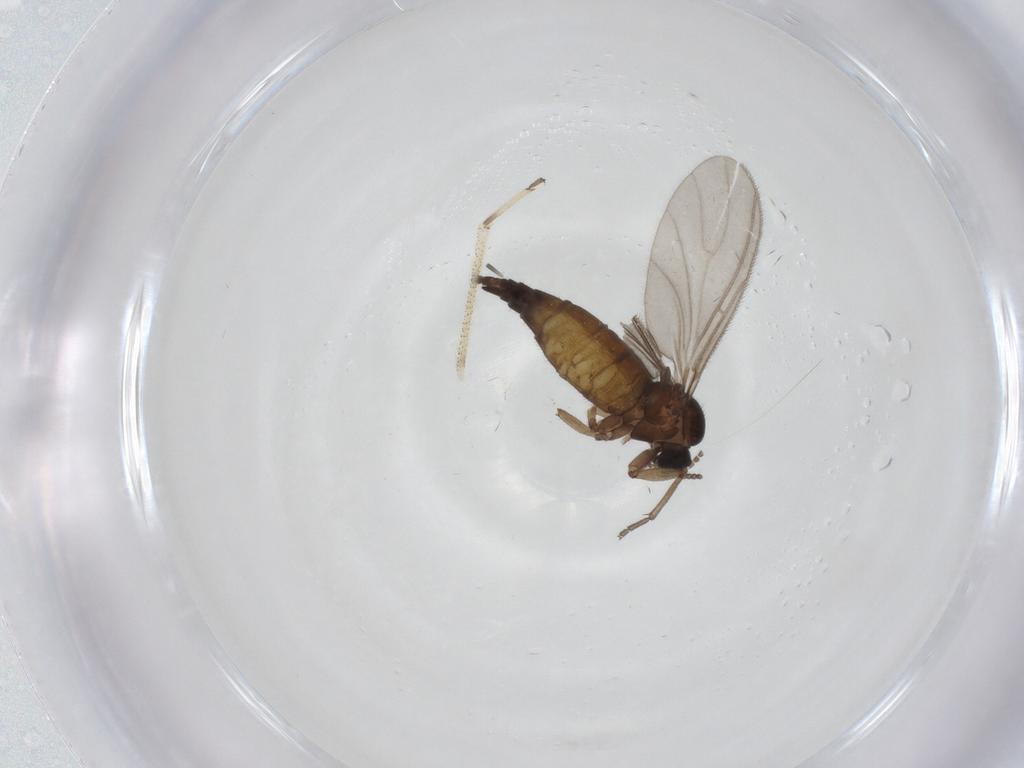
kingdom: Animalia
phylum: Arthropoda
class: Insecta
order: Diptera
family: Sciaridae
